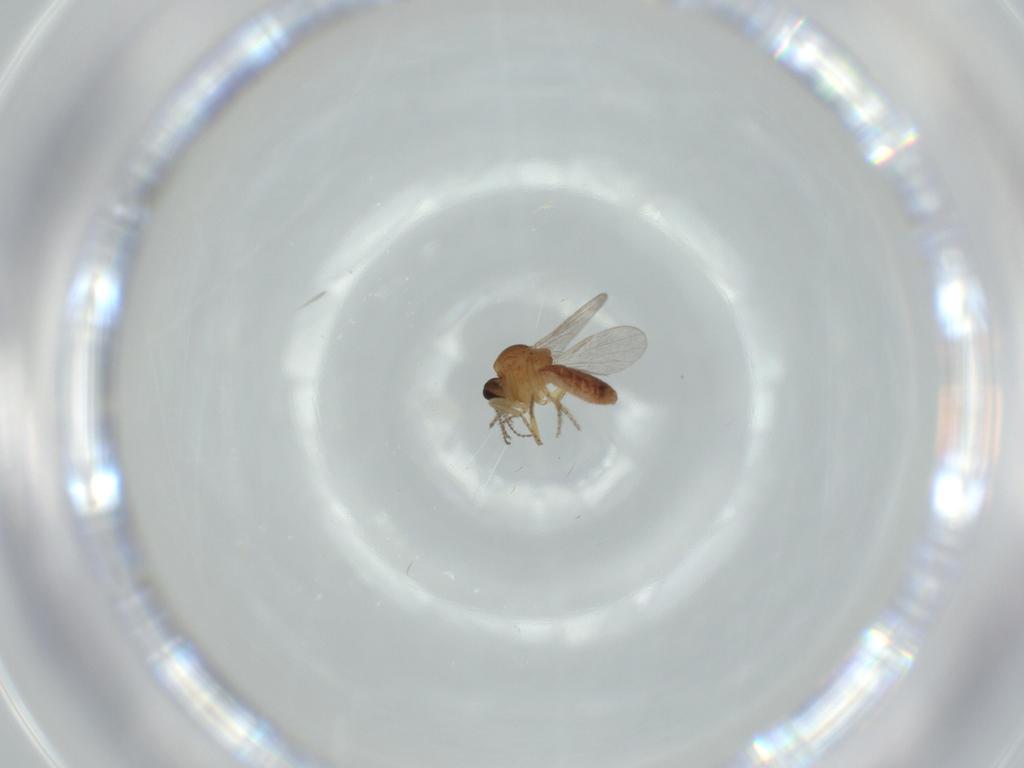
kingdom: Animalia
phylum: Arthropoda
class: Insecta
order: Diptera
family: Ceratopogonidae
